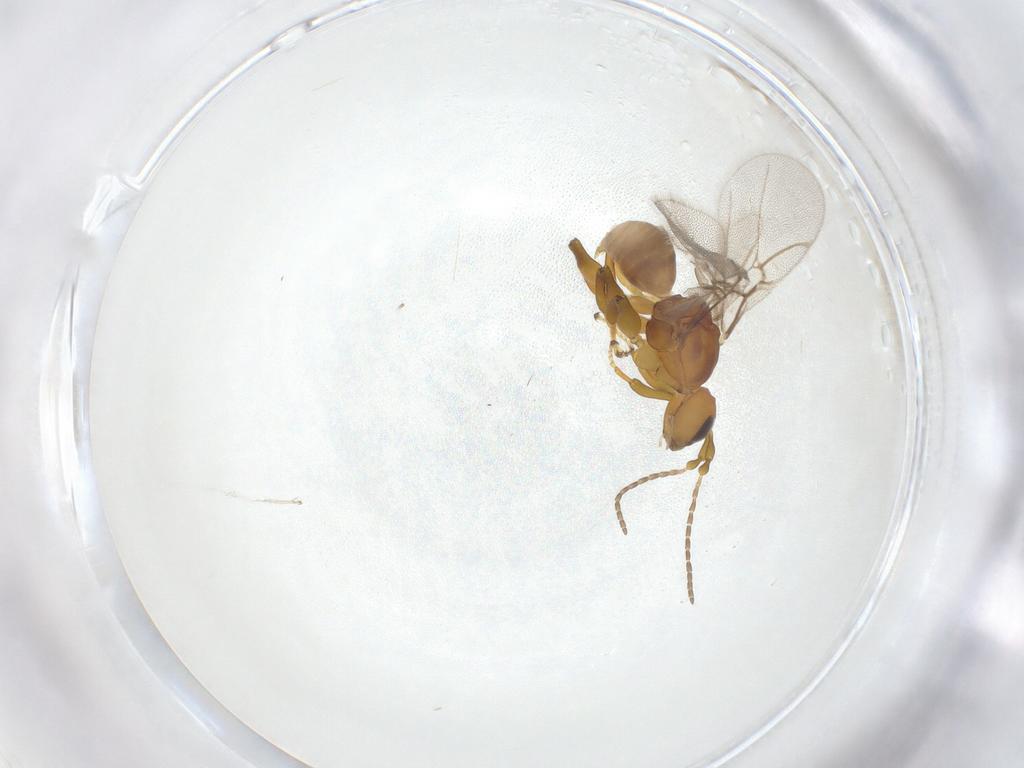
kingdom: Animalia
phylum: Arthropoda
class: Insecta
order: Hymenoptera
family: Cynipidae
